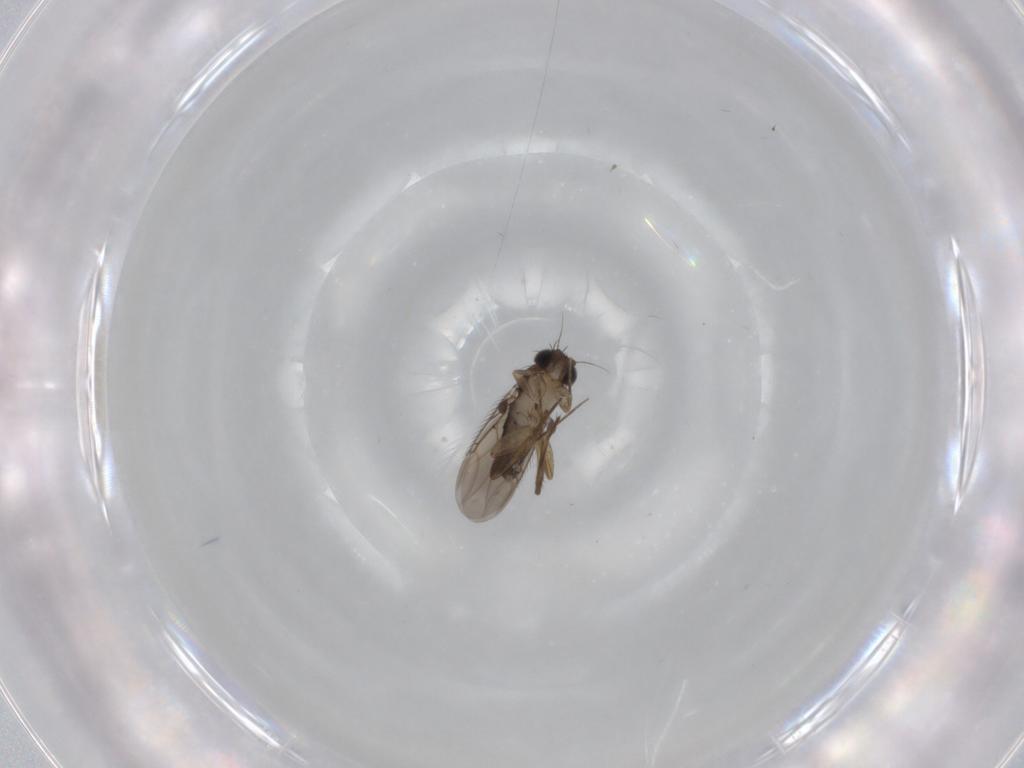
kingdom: Animalia
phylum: Arthropoda
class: Insecta
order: Diptera
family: Phoridae
